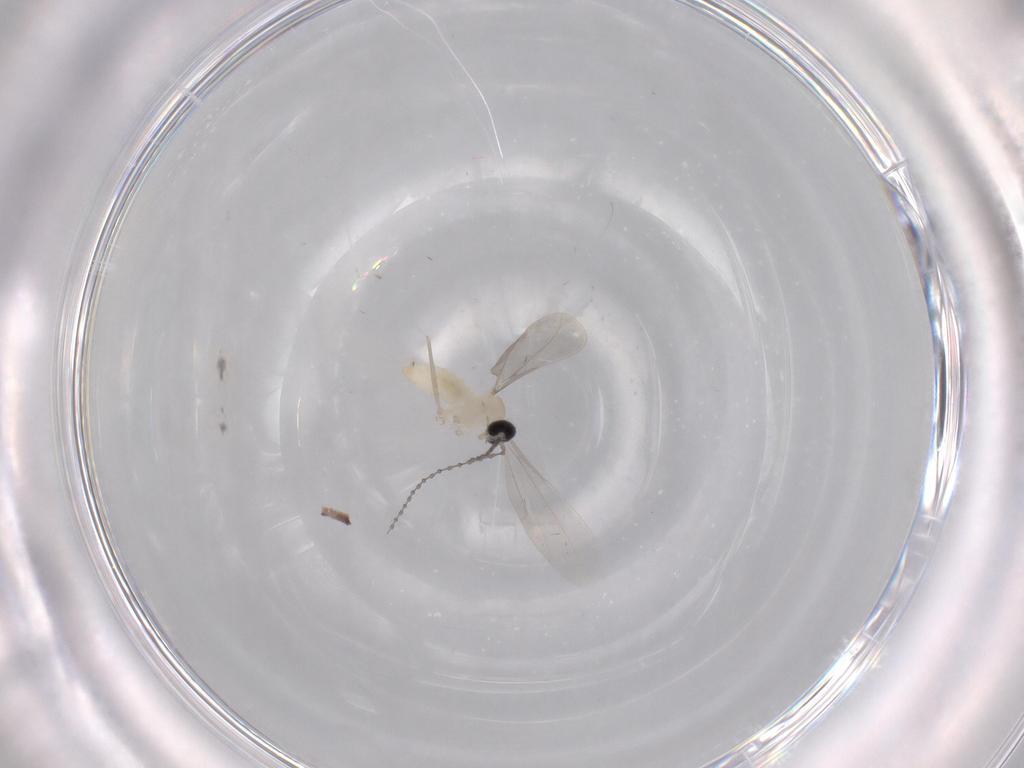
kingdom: Animalia
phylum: Arthropoda
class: Insecta
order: Diptera
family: Cecidomyiidae
